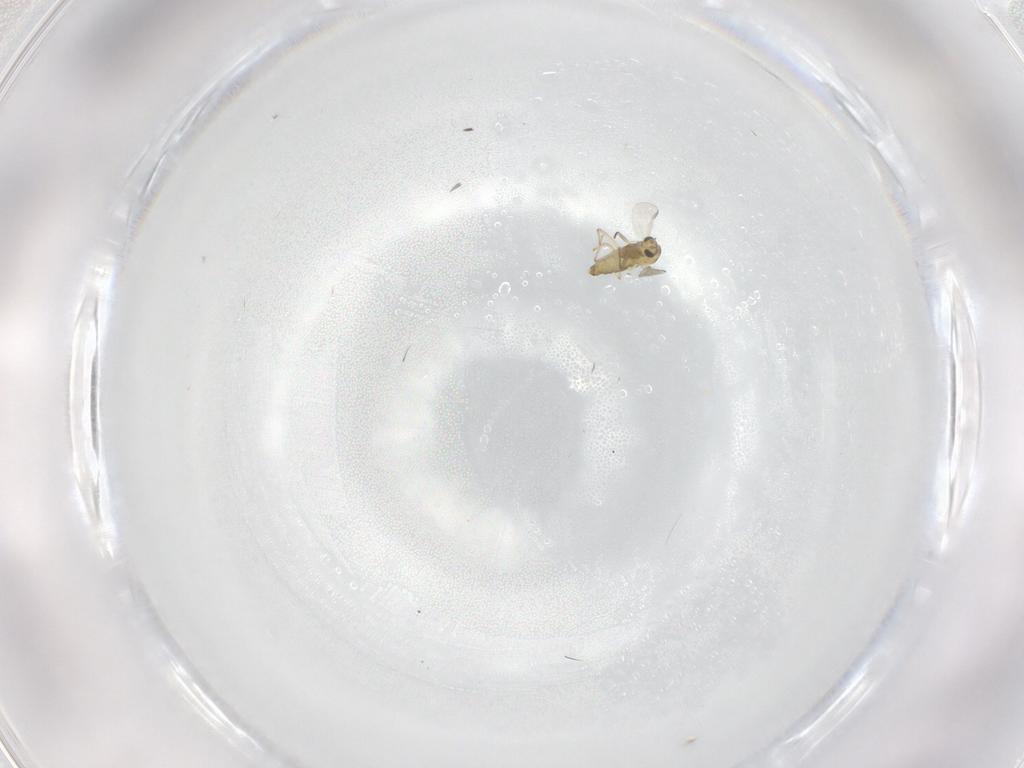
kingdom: Animalia
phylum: Arthropoda
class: Insecta
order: Diptera
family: Chironomidae
